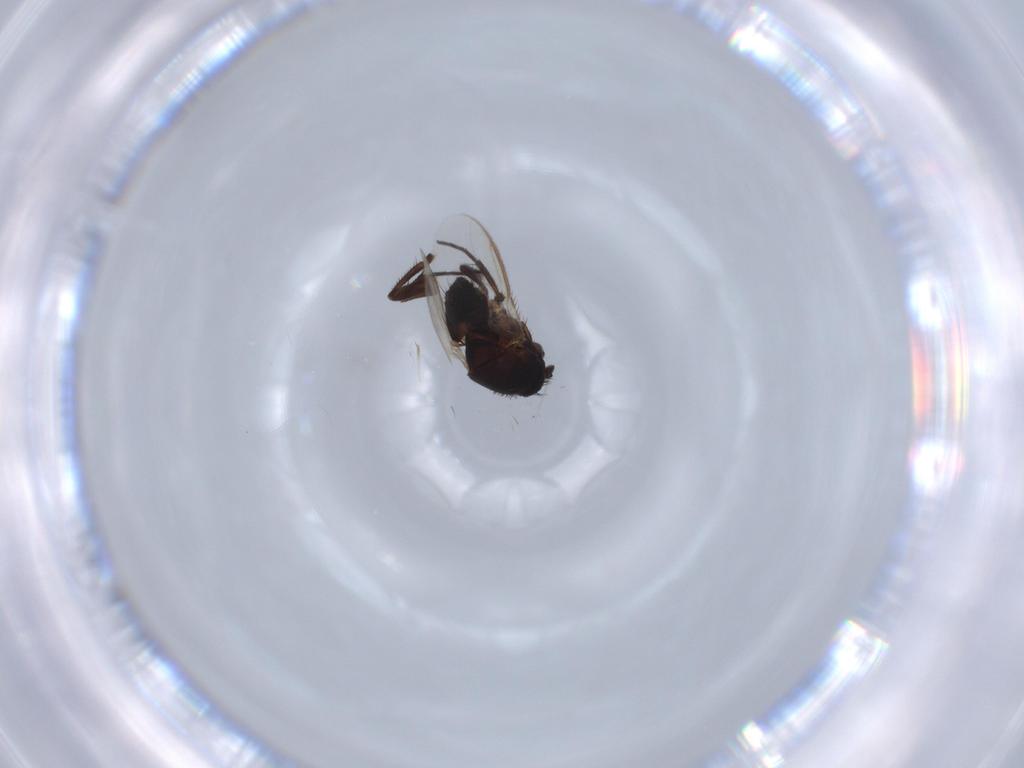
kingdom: Animalia
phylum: Arthropoda
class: Insecta
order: Diptera
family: Sphaeroceridae
